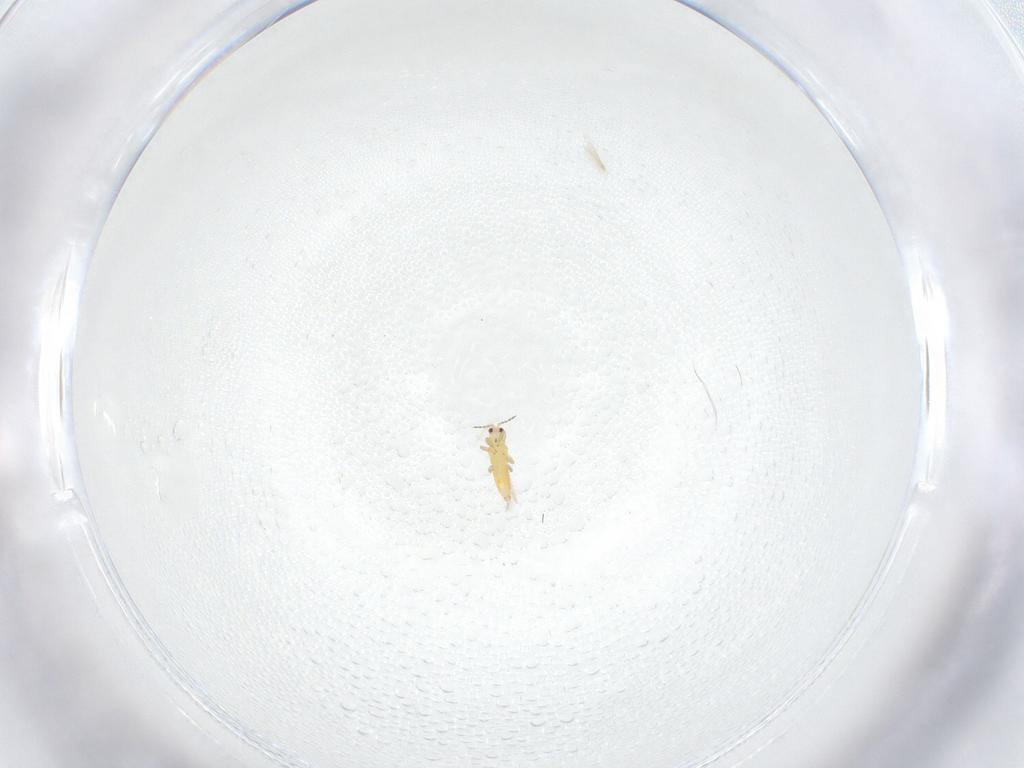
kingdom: Animalia
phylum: Arthropoda
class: Insecta
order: Thysanoptera
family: Thripidae
